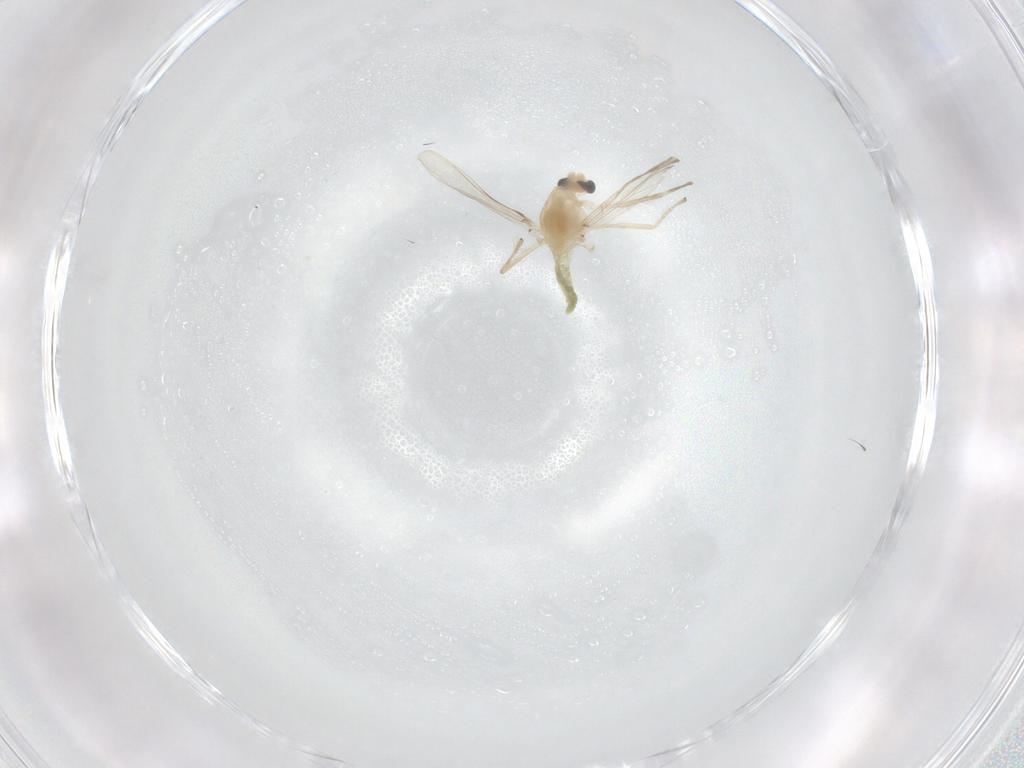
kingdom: Animalia
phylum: Arthropoda
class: Insecta
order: Diptera
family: Chironomidae
